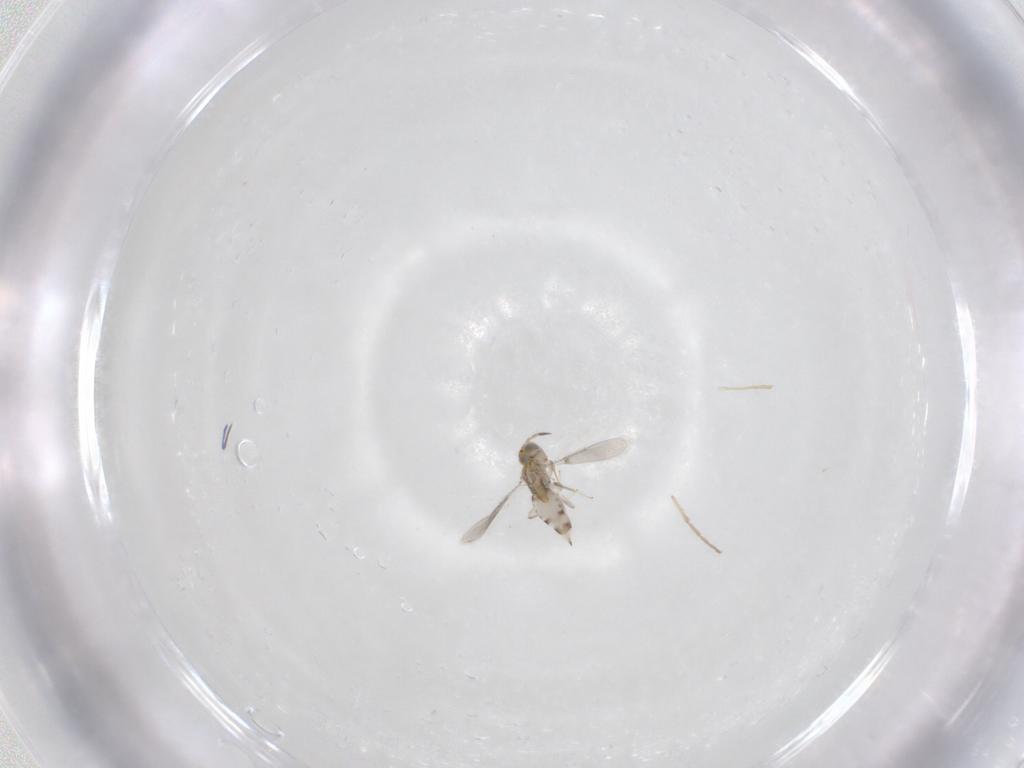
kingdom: Animalia
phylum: Arthropoda
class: Insecta
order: Hymenoptera
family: Aphelinidae
